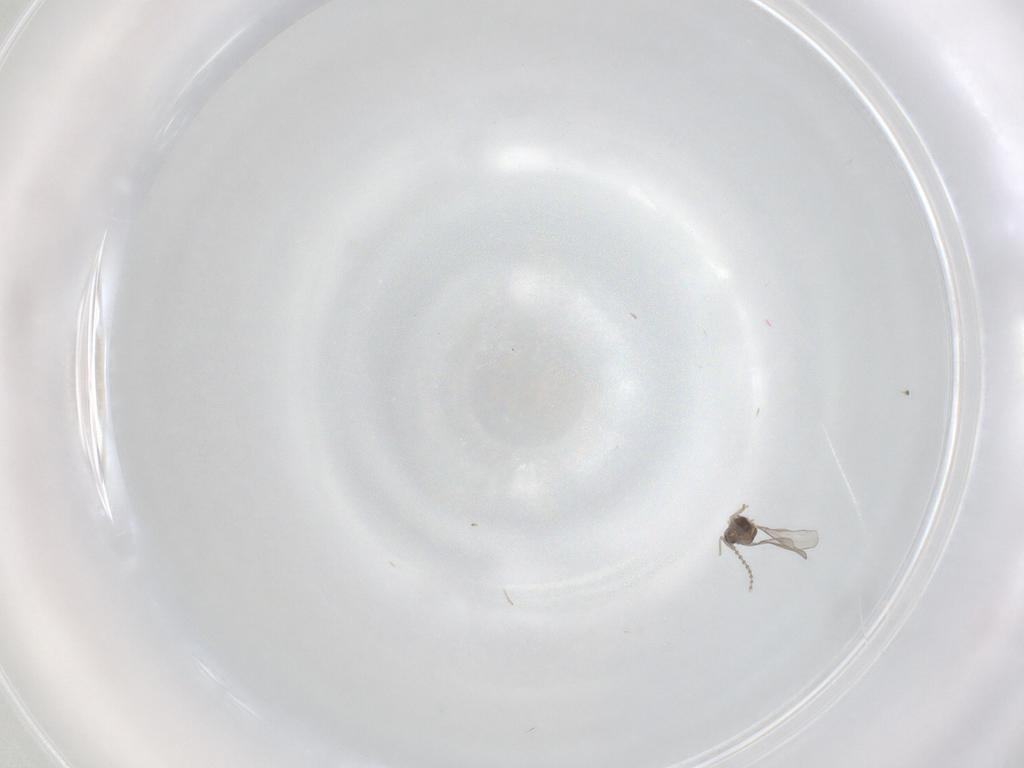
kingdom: Animalia
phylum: Arthropoda
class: Insecta
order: Diptera
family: Cecidomyiidae
